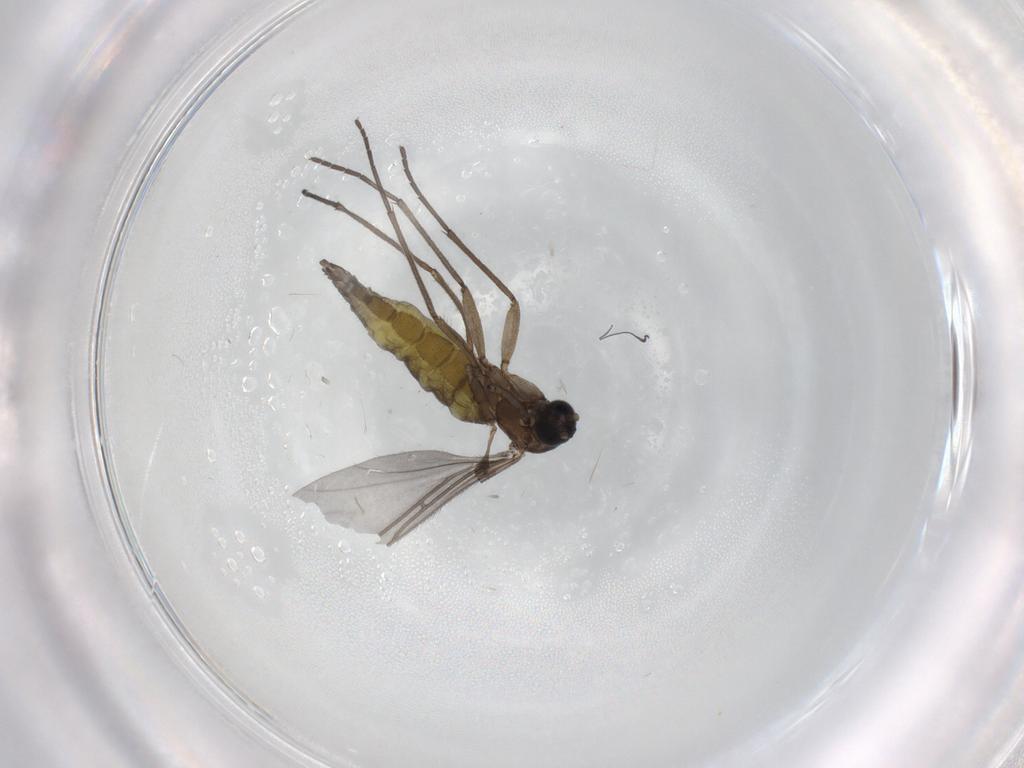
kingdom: Animalia
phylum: Arthropoda
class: Insecta
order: Diptera
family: Sciaridae
